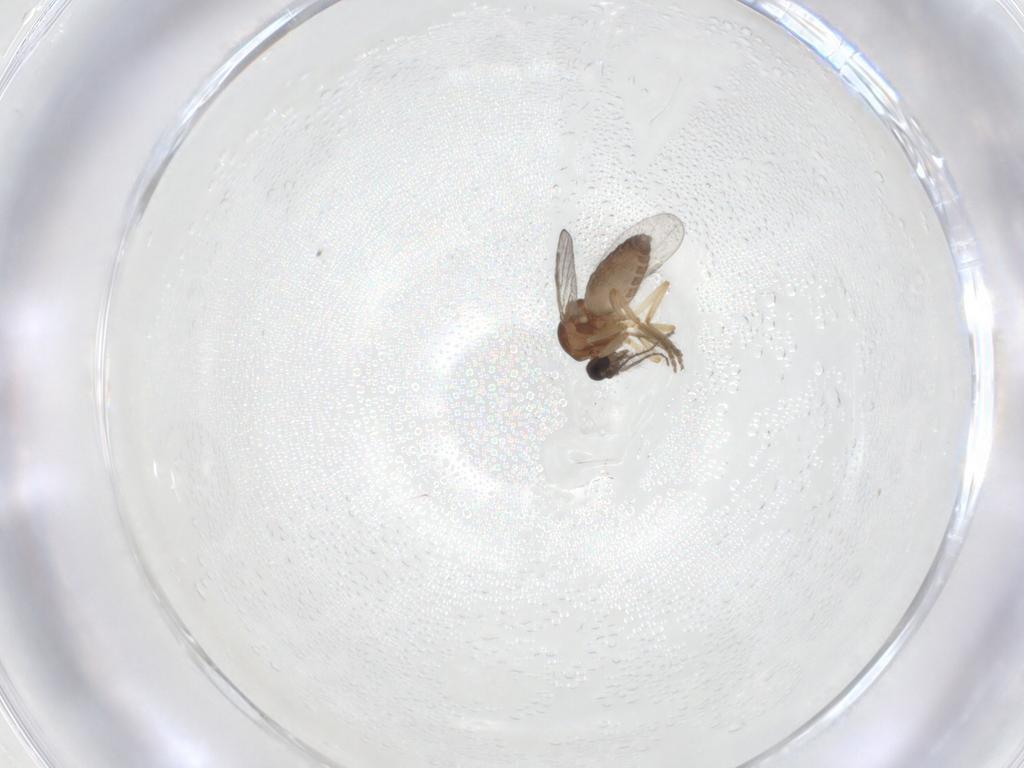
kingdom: Animalia
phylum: Arthropoda
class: Insecta
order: Diptera
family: Ceratopogonidae
